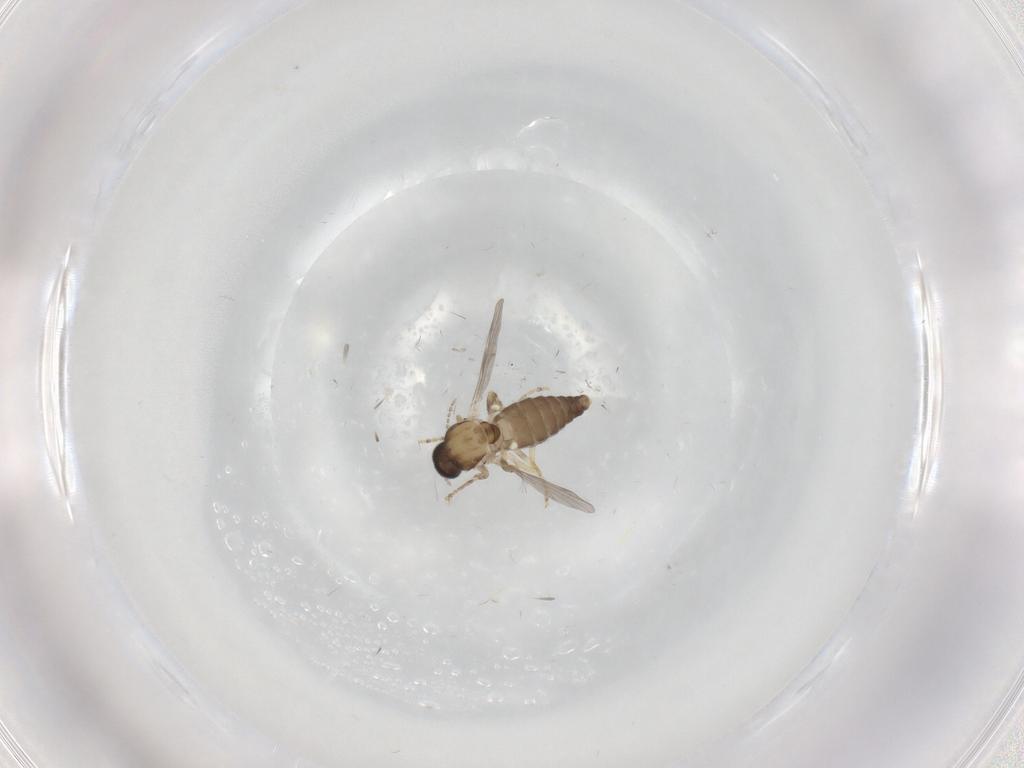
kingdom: Animalia
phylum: Arthropoda
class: Insecta
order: Diptera
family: Ceratopogonidae
